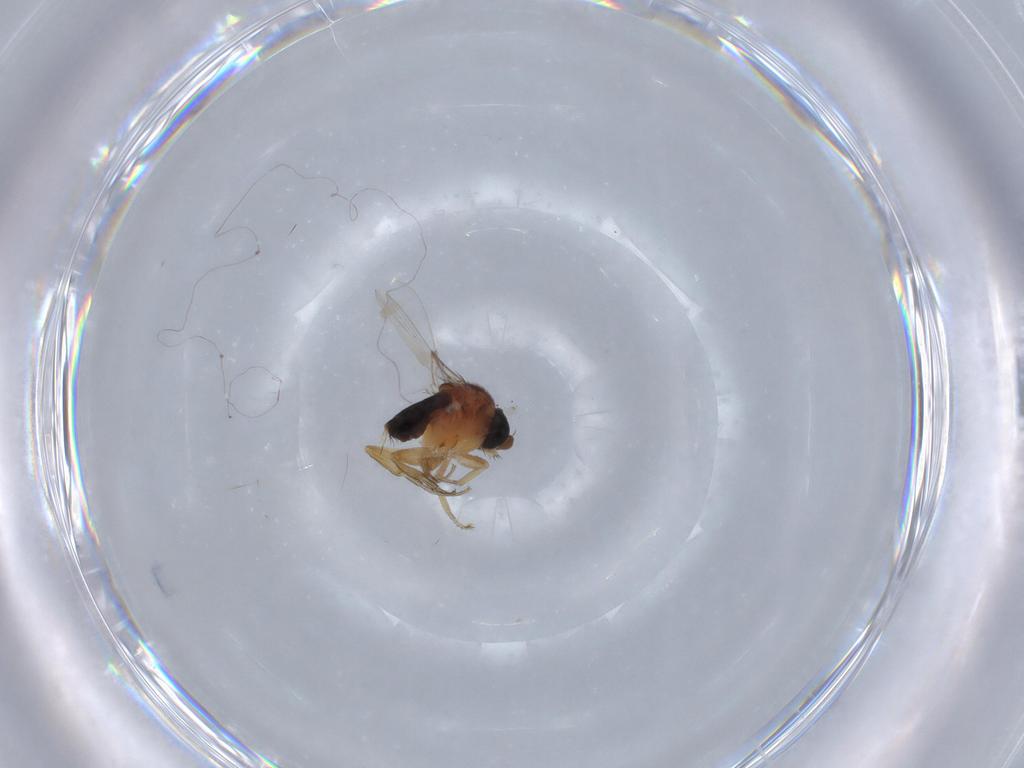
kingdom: Animalia
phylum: Arthropoda
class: Insecta
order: Diptera
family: Phoridae
